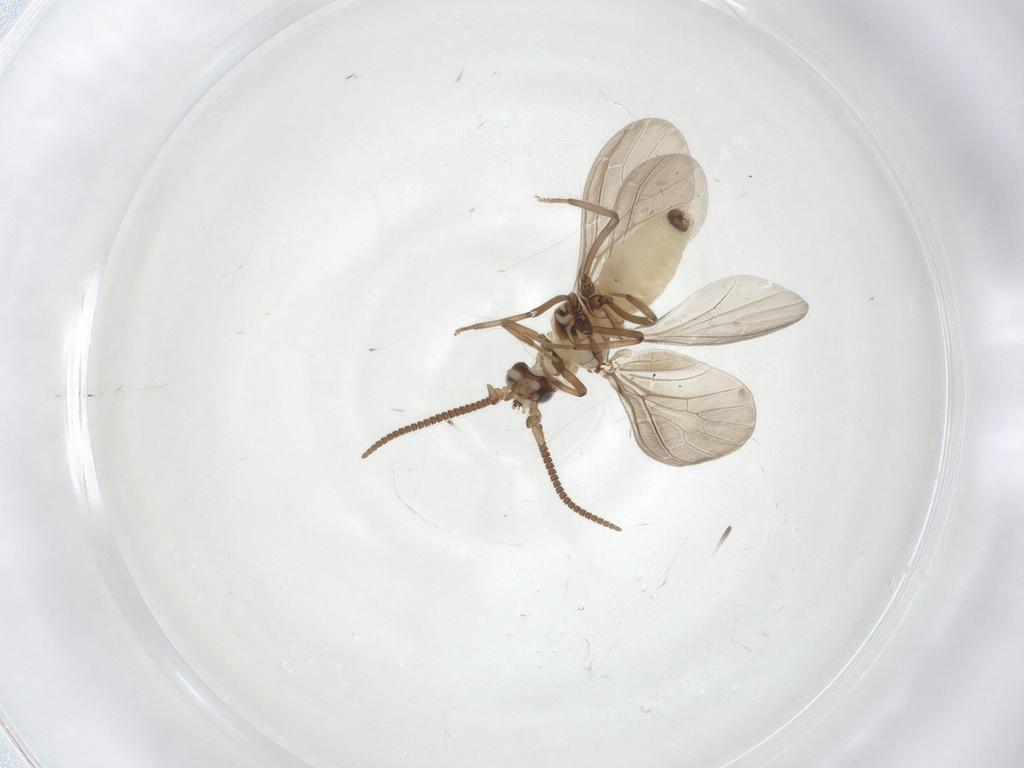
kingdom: Animalia
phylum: Arthropoda
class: Insecta
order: Neuroptera
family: Coniopterygidae
